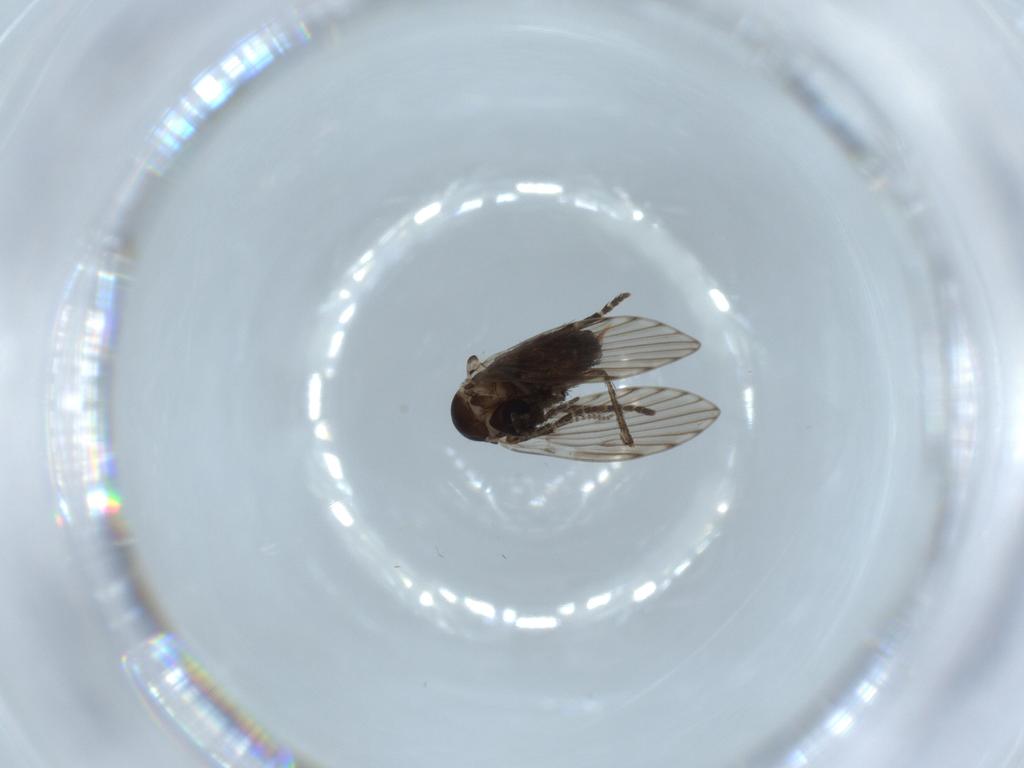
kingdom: Animalia
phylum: Arthropoda
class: Insecta
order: Diptera
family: Psychodidae
